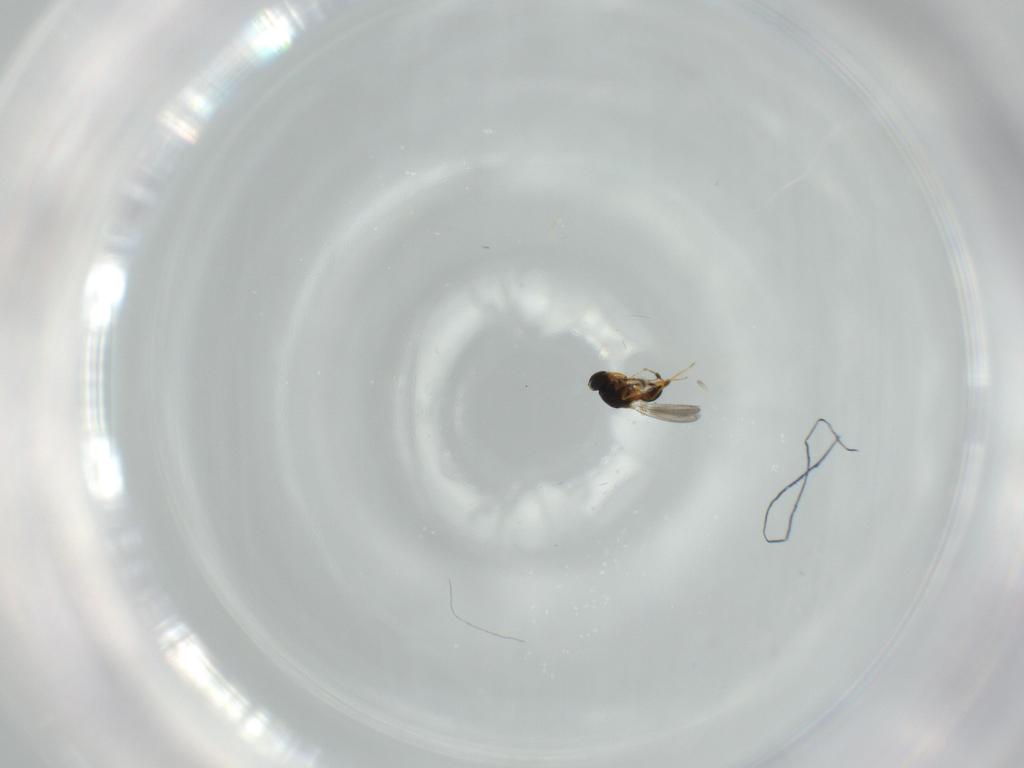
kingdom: Animalia
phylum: Arthropoda
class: Insecta
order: Hymenoptera
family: Platygastridae
